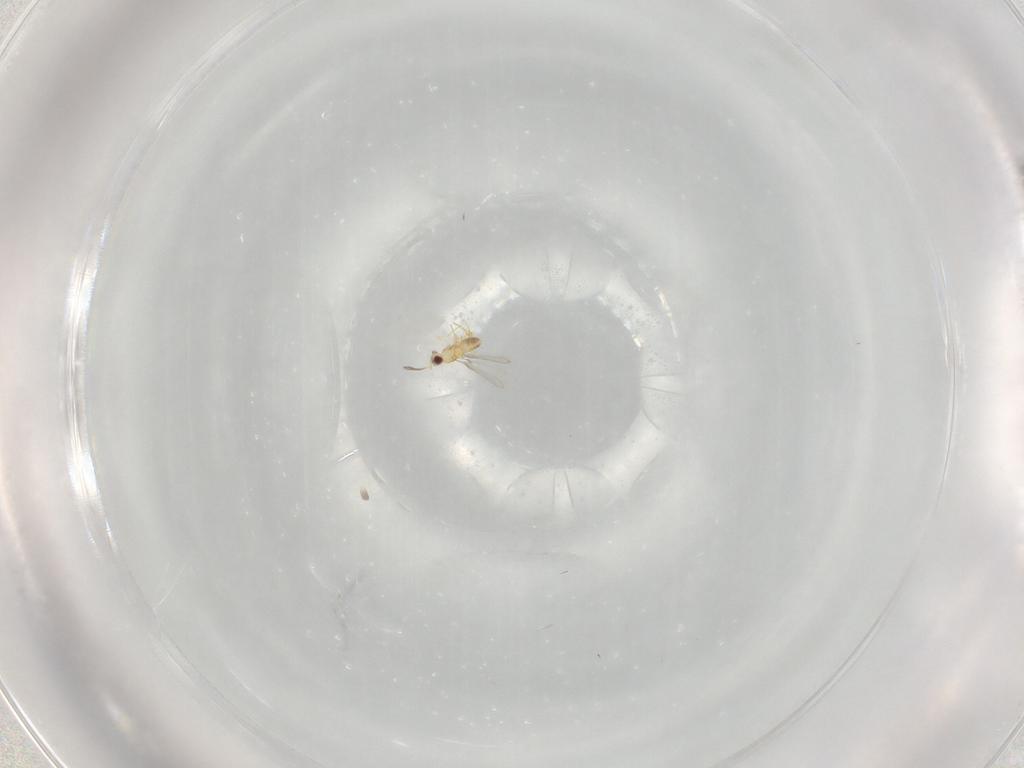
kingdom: Animalia
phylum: Arthropoda
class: Insecta
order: Hymenoptera
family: Mymaridae
